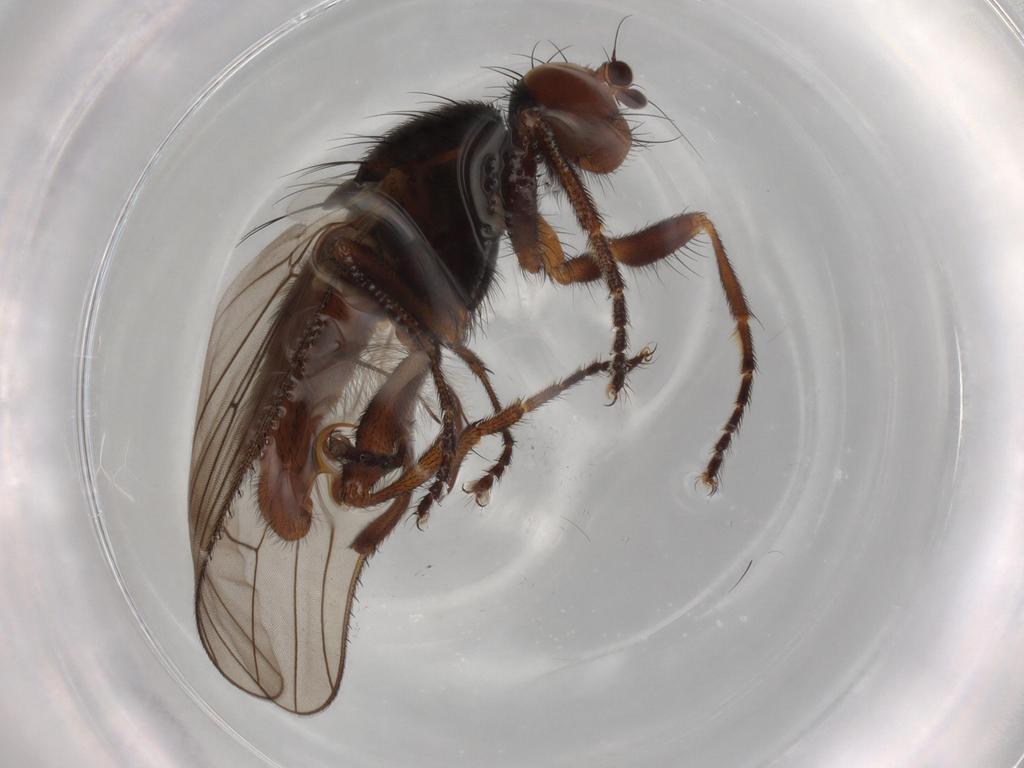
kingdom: Animalia
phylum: Arthropoda
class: Insecta
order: Diptera
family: Heleomyzidae
